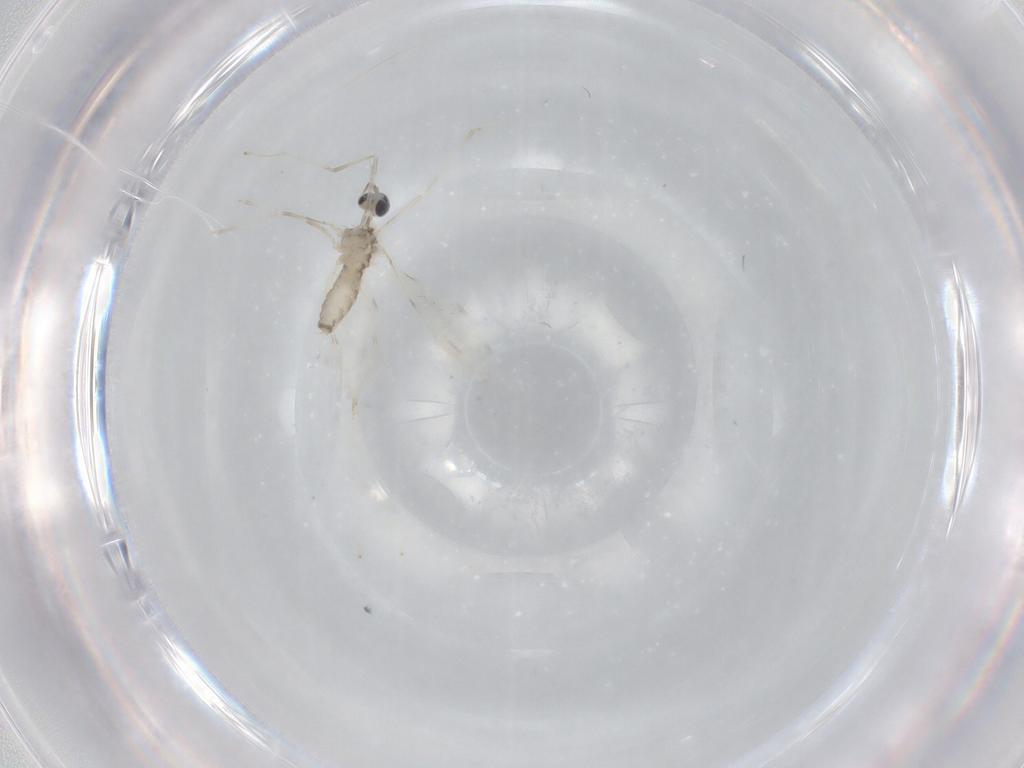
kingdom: Animalia
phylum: Arthropoda
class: Insecta
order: Diptera
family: Cecidomyiidae
